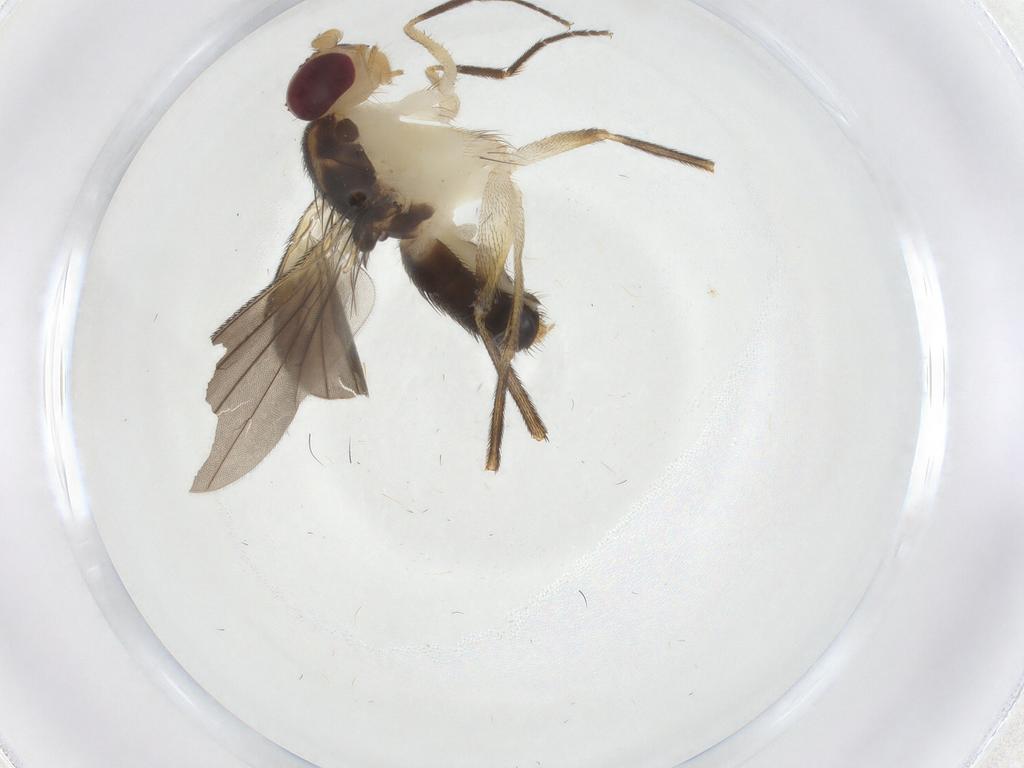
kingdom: Animalia
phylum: Arthropoda
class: Insecta
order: Diptera
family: Clusiidae
